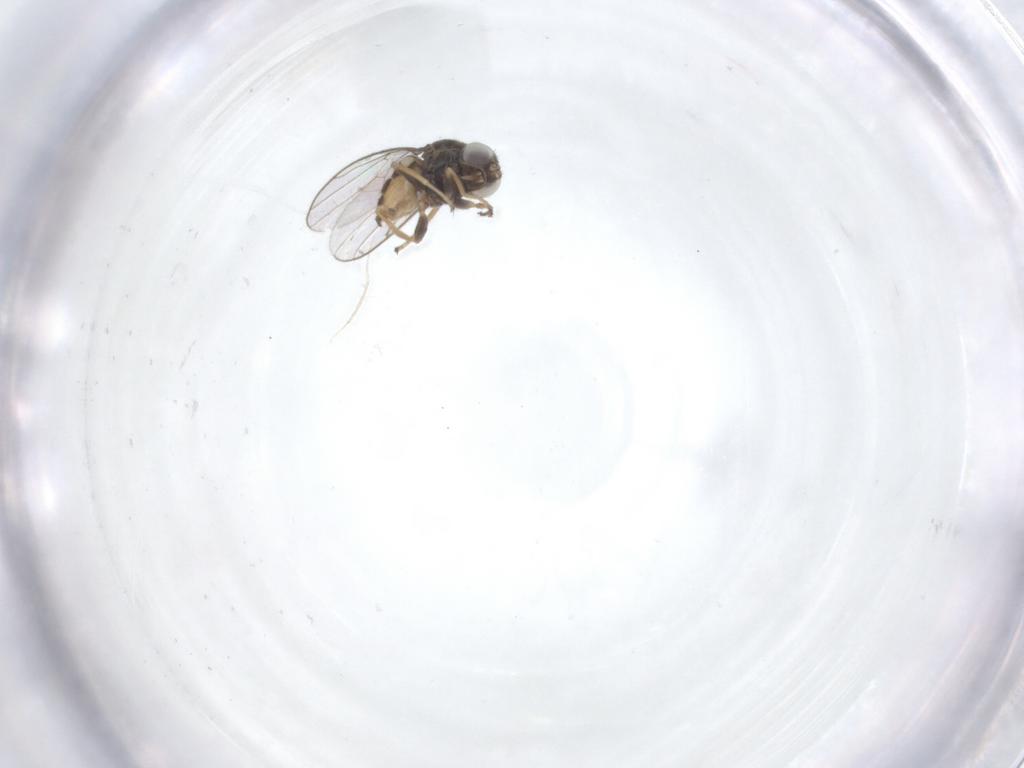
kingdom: Animalia
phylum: Arthropoda
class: Insecta
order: Diptera
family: Chloropidae
